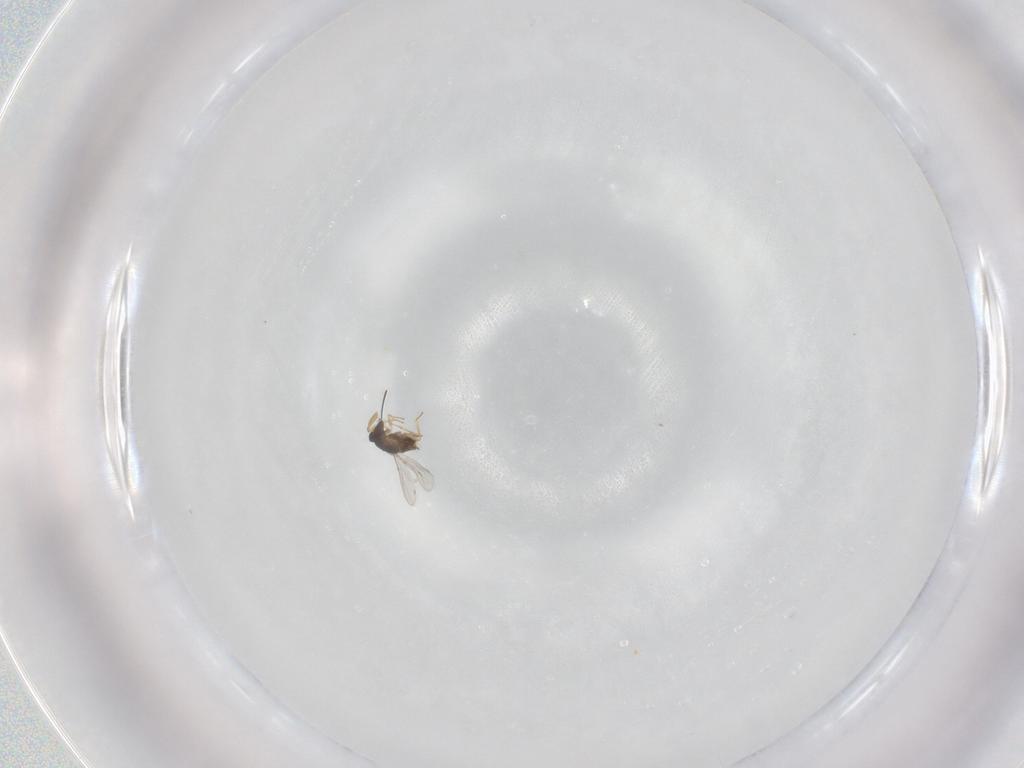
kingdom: Animalia
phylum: Arthropoda
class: Insecta
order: Hymenoptera
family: Encyrtidae
